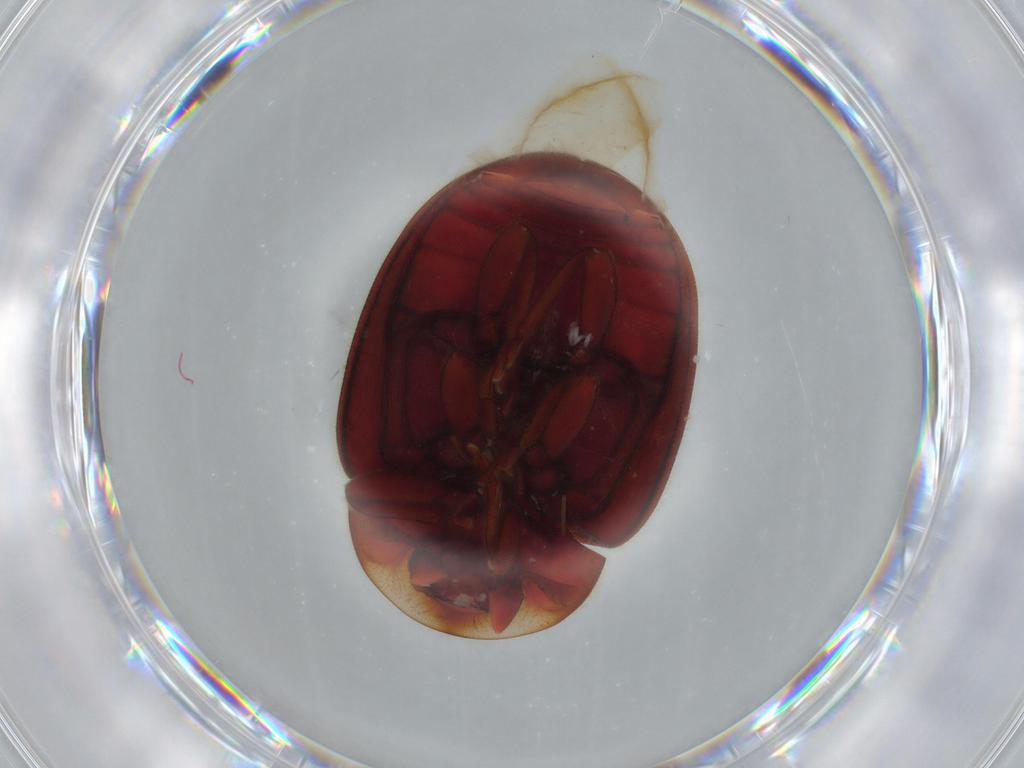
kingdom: Animalia
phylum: Arthropoda
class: Insecta
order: Coleoptera
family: Coccinellidae
